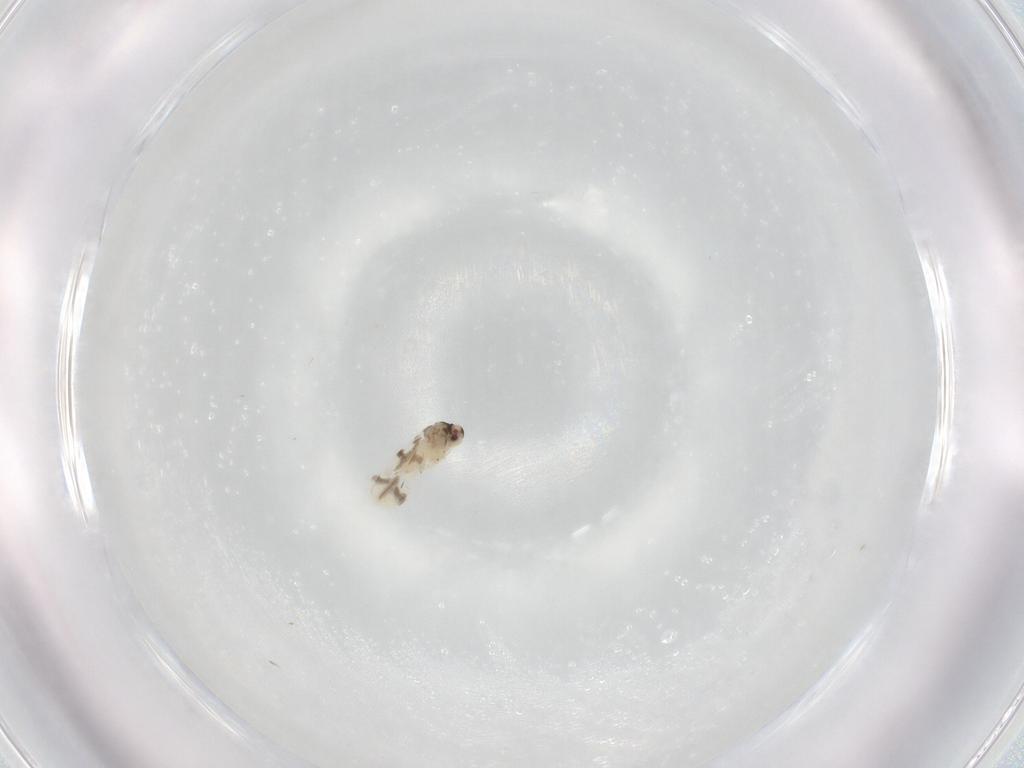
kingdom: Animalia
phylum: Arthropoda
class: Insecta
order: Hemiptera
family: Aleyrodidae
